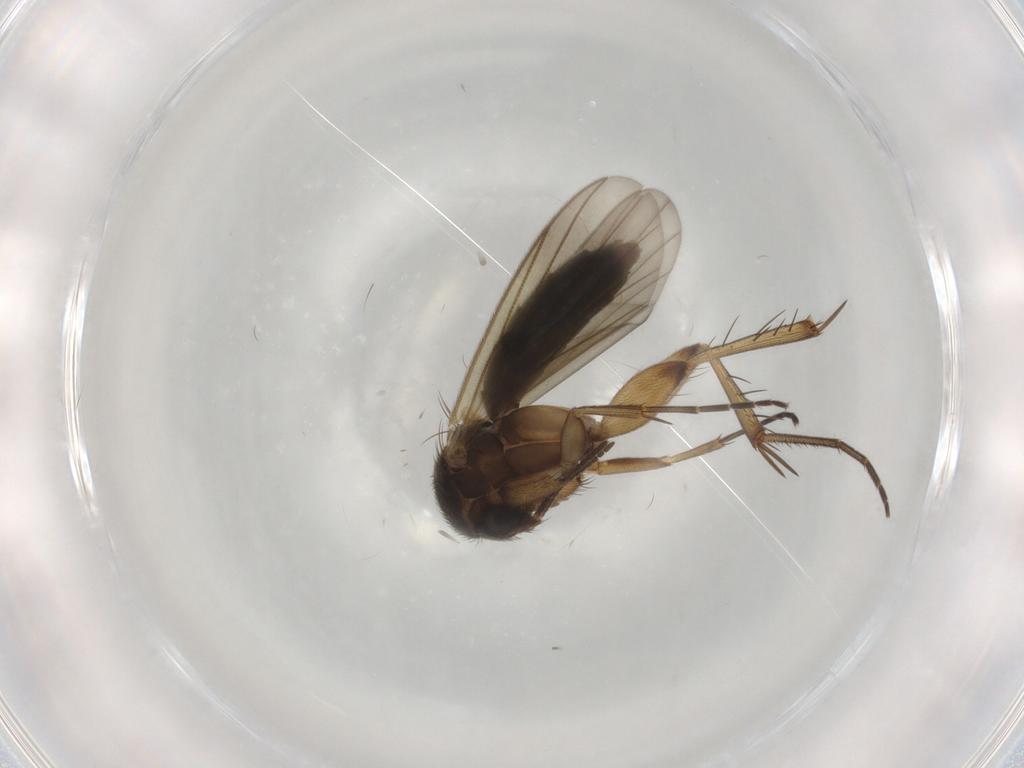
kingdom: Animalia
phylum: Arthropoda
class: Insecta
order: Diptera
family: Mycetophilidae
